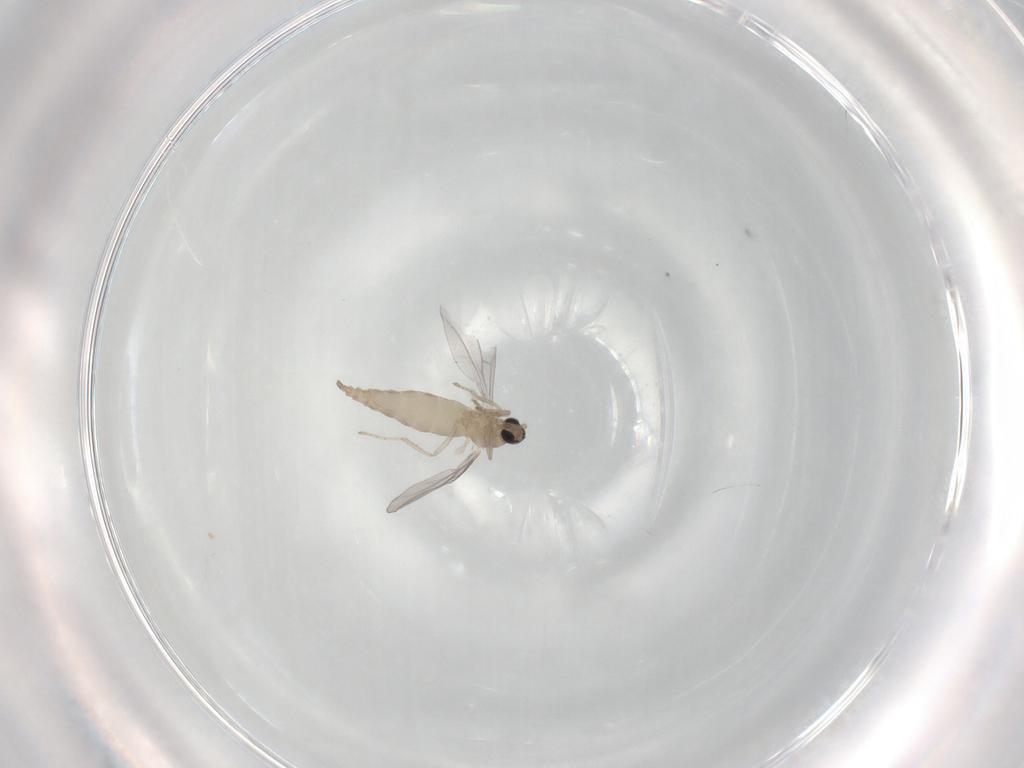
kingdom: Animalia
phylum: Arthropoda
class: Insecta
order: Diptera
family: Cecidomyiidae
